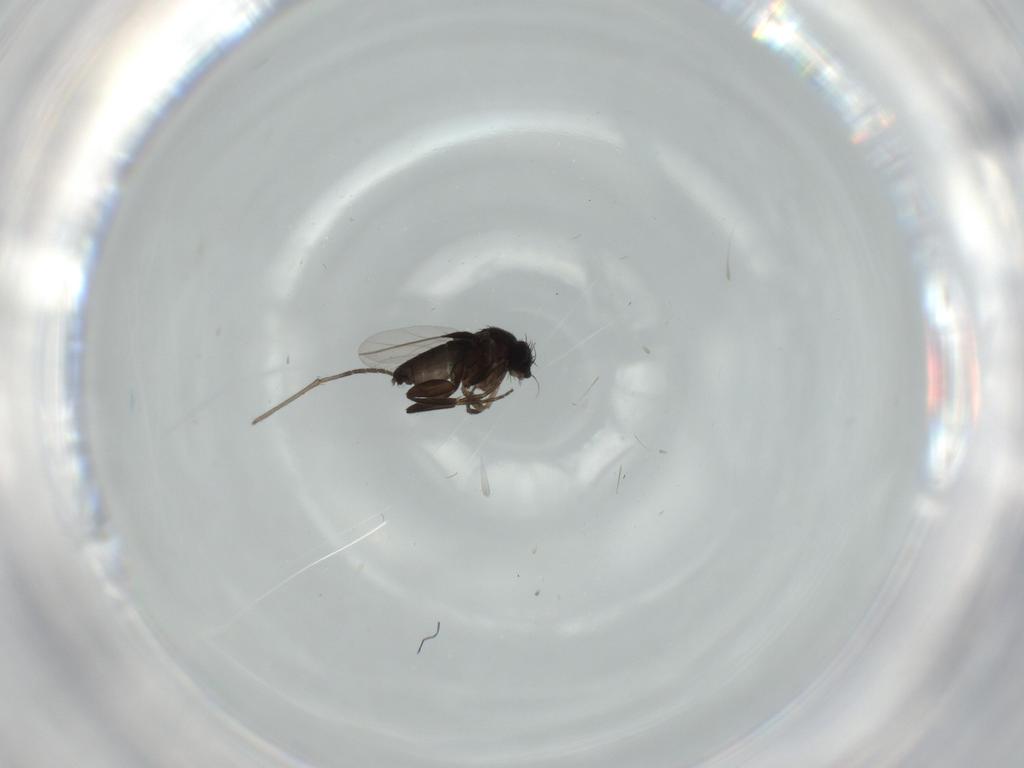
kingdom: Animalia
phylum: Arthropoda
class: Insecta
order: Diptera
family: Phoridae
